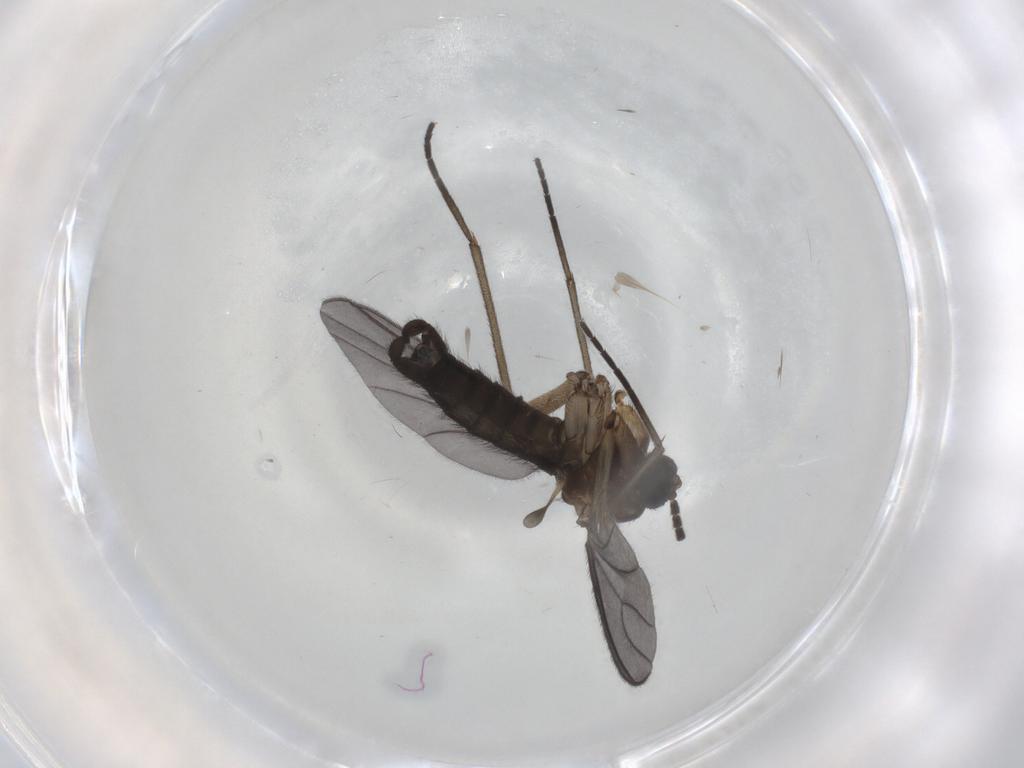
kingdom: Animalia
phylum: Arthropoda
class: Insecta
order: Diptera
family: Sciaridae
